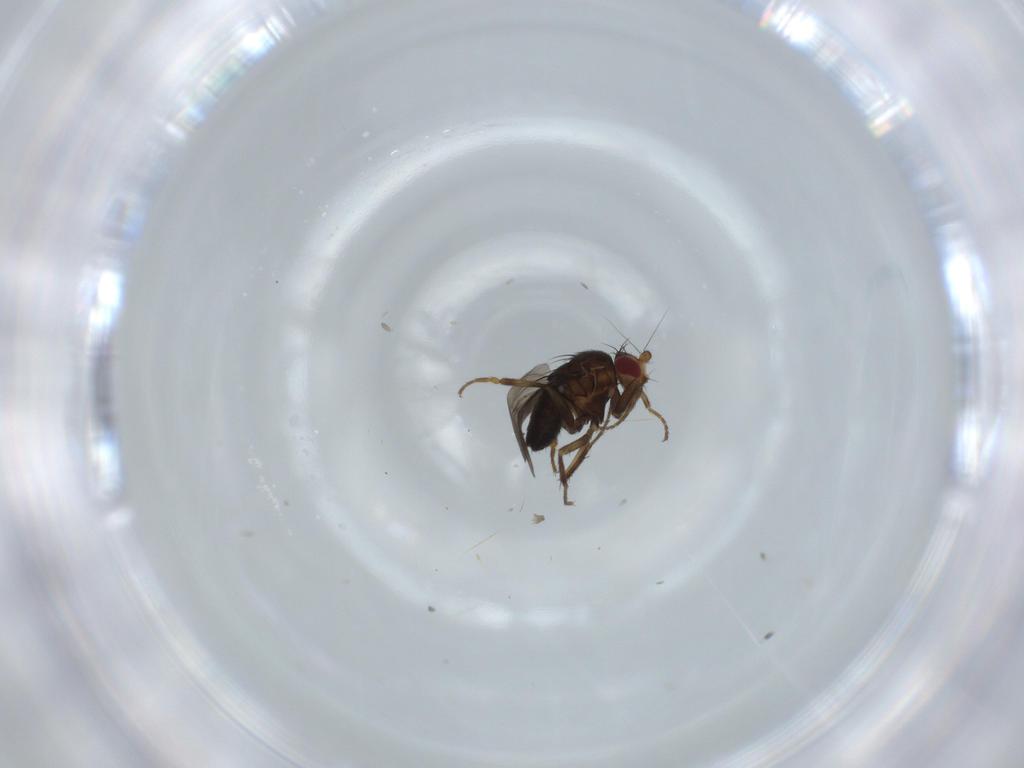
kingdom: Animalia
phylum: Arthropoda
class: Insecta
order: Diptera
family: Ceratopogonidae
